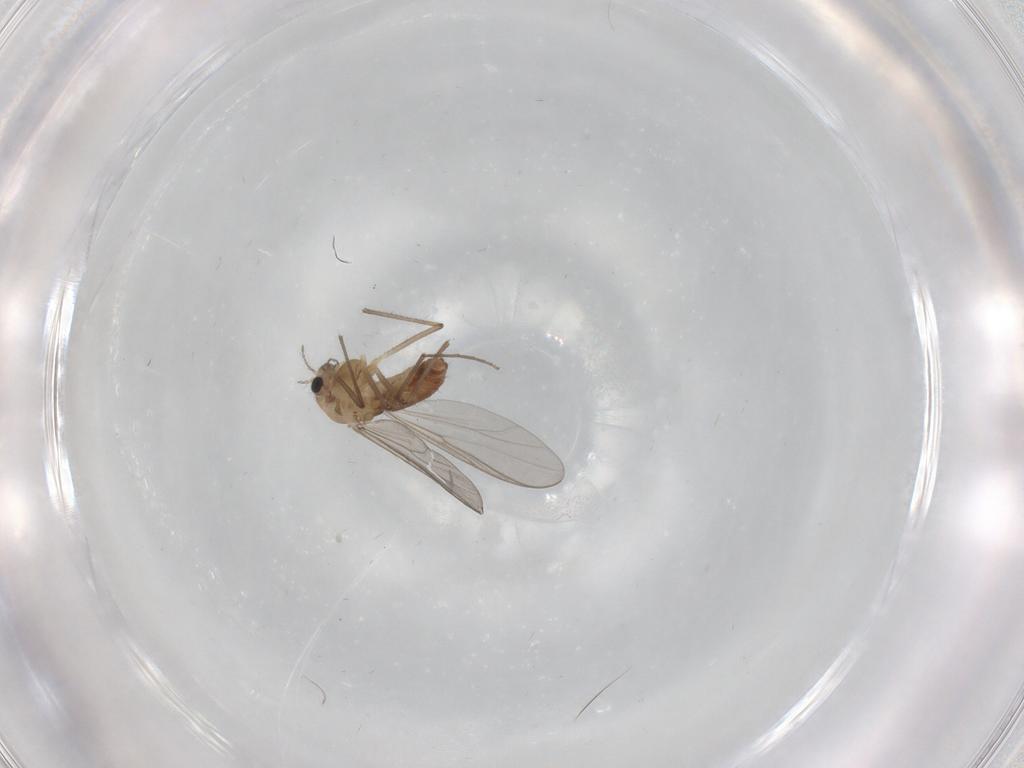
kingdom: Animalia
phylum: Arthropoda
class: Insecta
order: Diptera
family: Chironomidae
